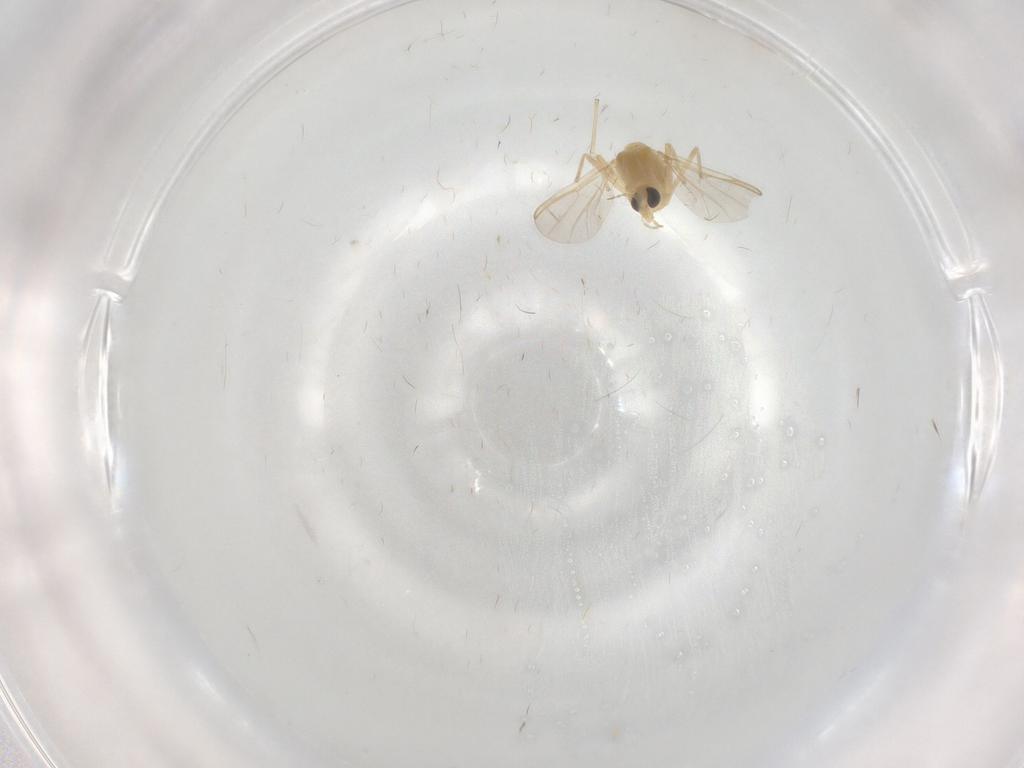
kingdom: Animalia
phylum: Arthropoda
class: Insecta
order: Diptera
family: Chironomidae
